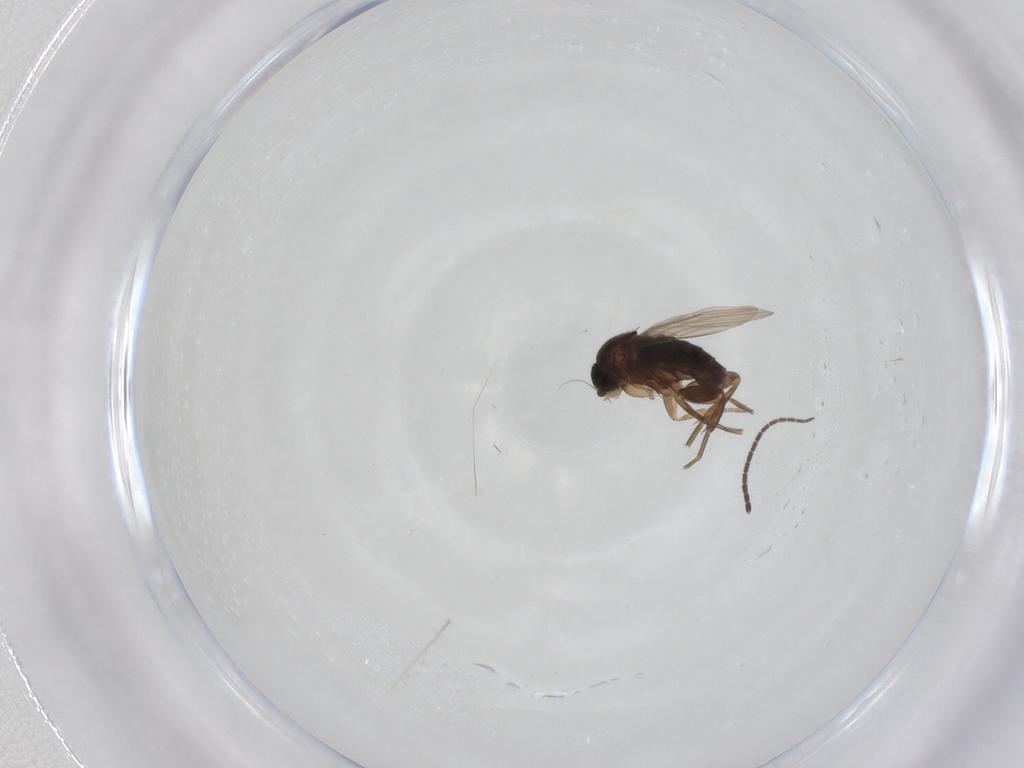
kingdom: Animalia
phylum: Arthropoda
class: Insecta
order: Diptera
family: Phoridae
